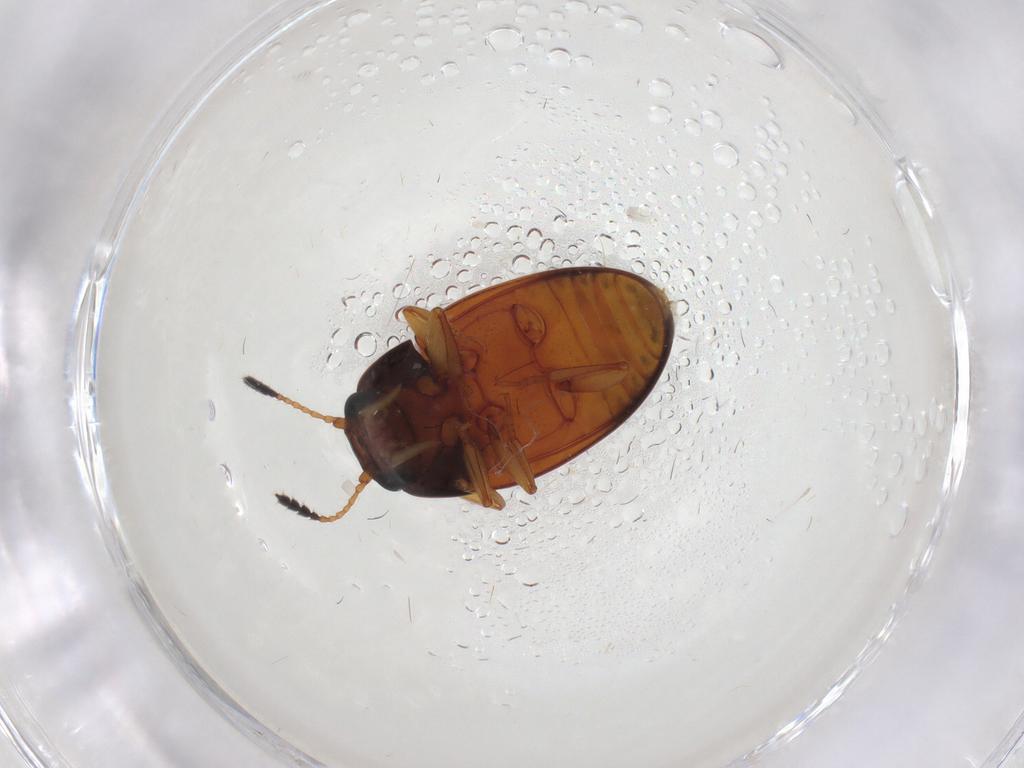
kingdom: Animalia
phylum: Arthropoda
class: Insecta
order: Coleoptera
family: Erotylidae
